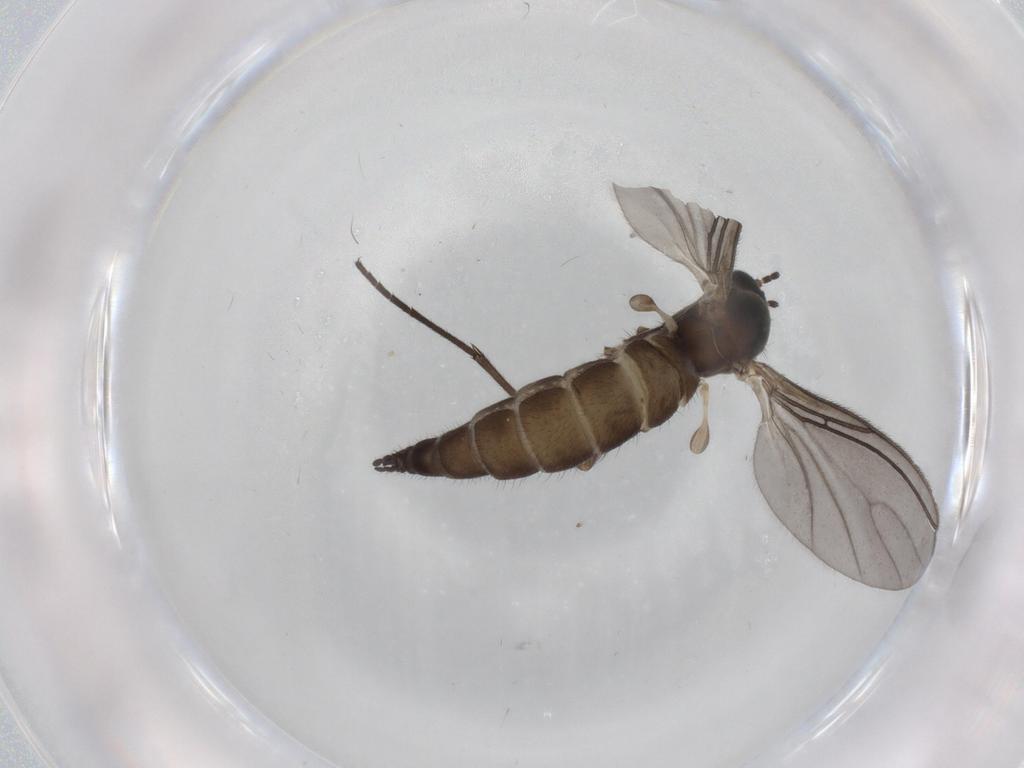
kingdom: Animalia
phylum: Arthropoda
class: Insecta
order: Diptera
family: Sciaridae
